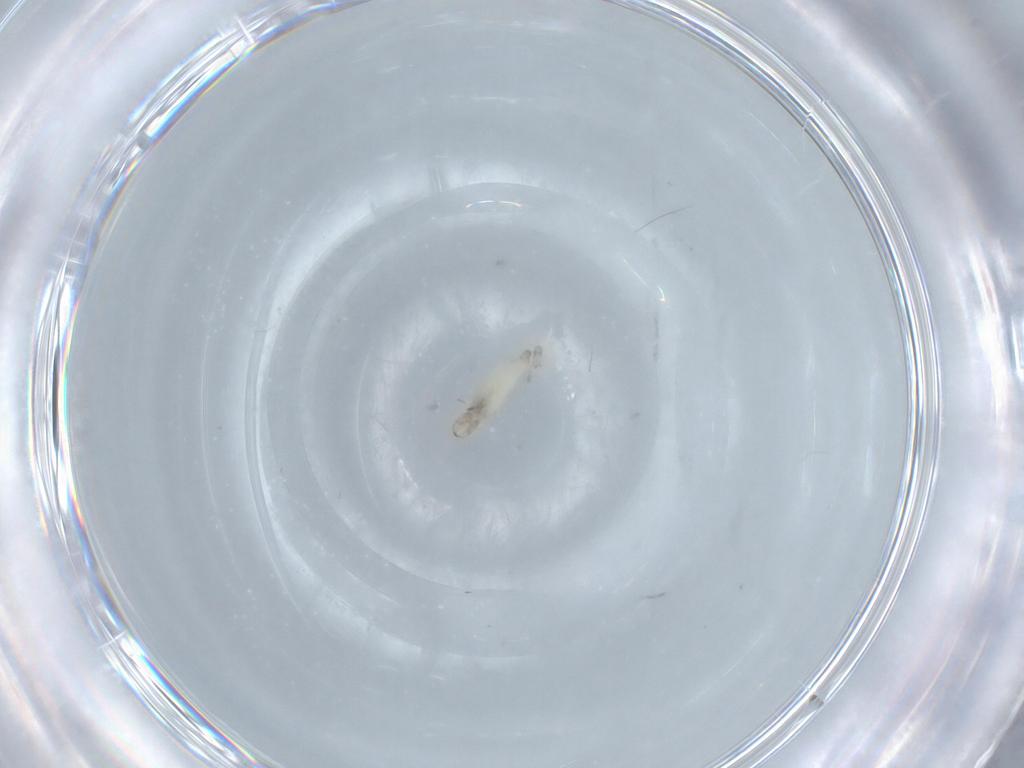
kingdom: Animalia
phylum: Arthropoda
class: Insecta
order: Diptera
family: Cecidomyiidae
